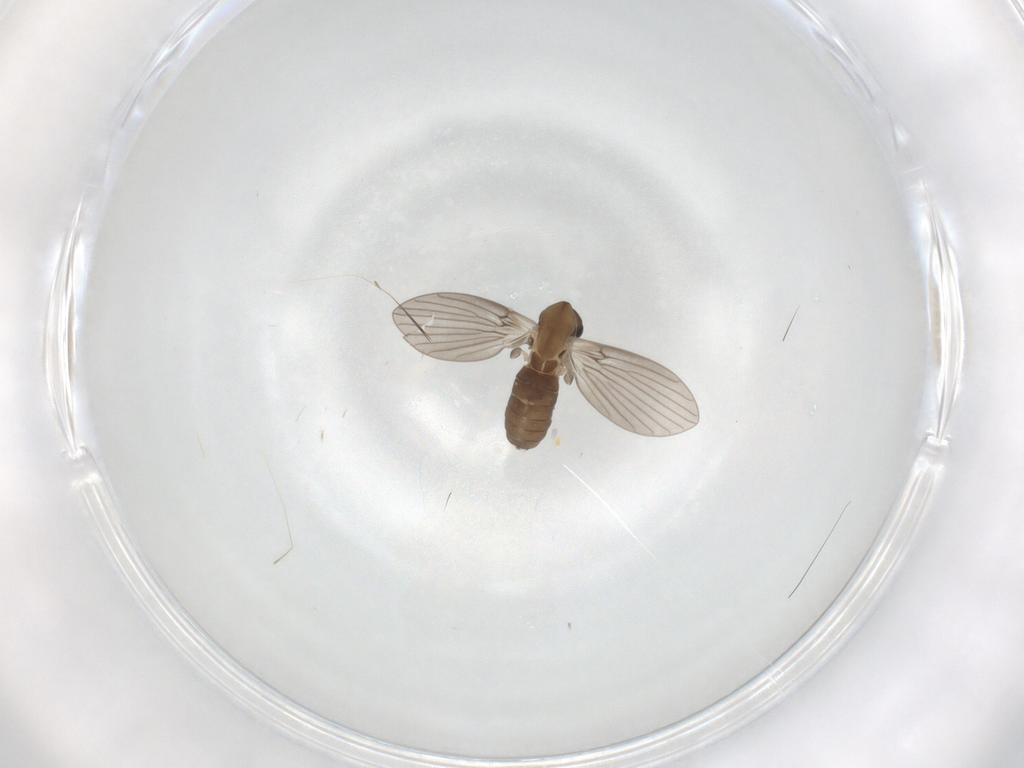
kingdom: Animalia
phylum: Arthropoda
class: Insecta
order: Diptera
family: Psychodidae
